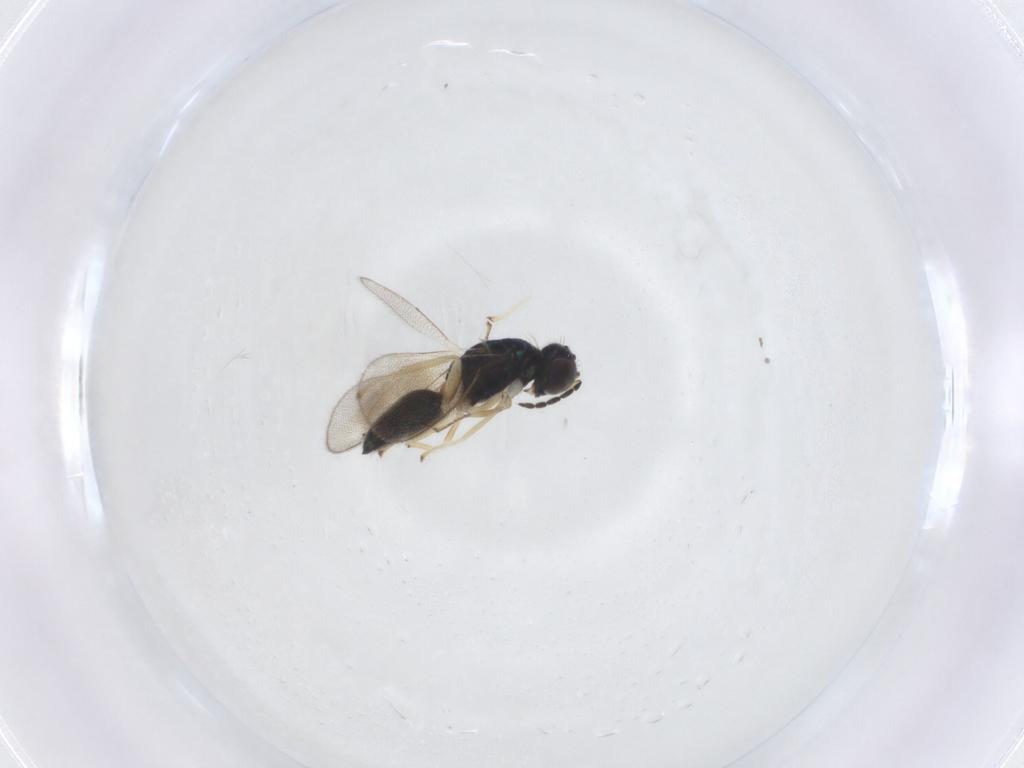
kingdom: Animalia
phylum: Arthropoda
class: Insecta
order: Hymenoptera
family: Eulophidae
